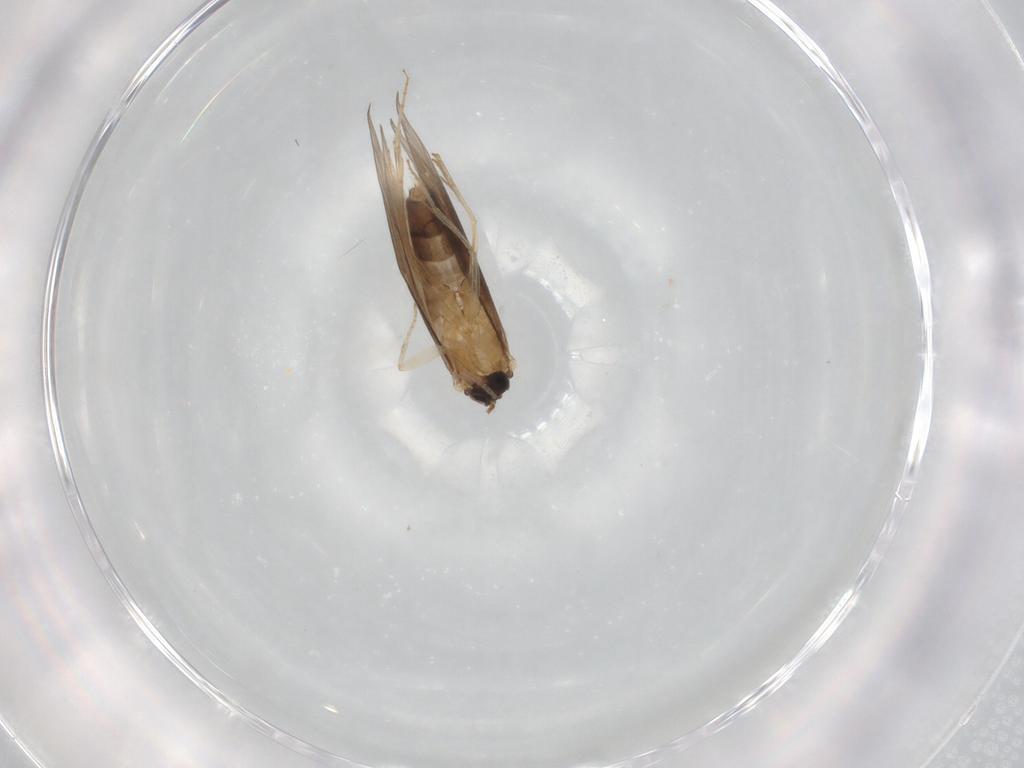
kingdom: Animalia
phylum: Arthropoda
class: Insecta
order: Trichoptera
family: Hydroptilidae
